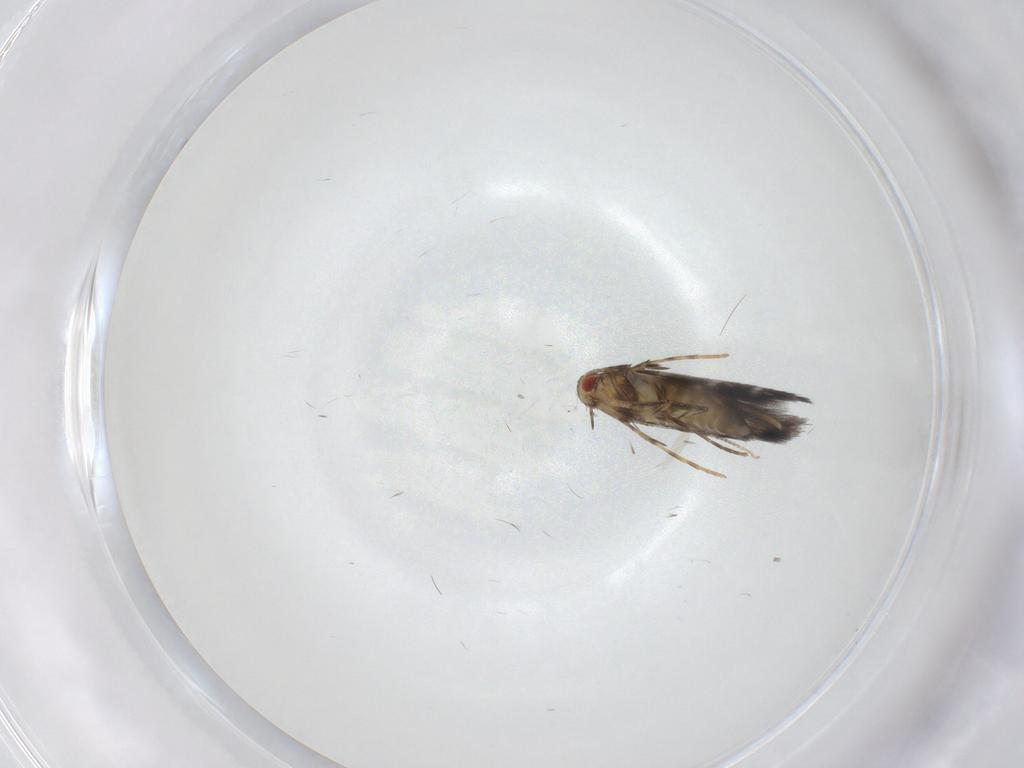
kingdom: Animalia
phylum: Arthropoda
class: Insecta
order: Lepidoptera
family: Gracillariidae
